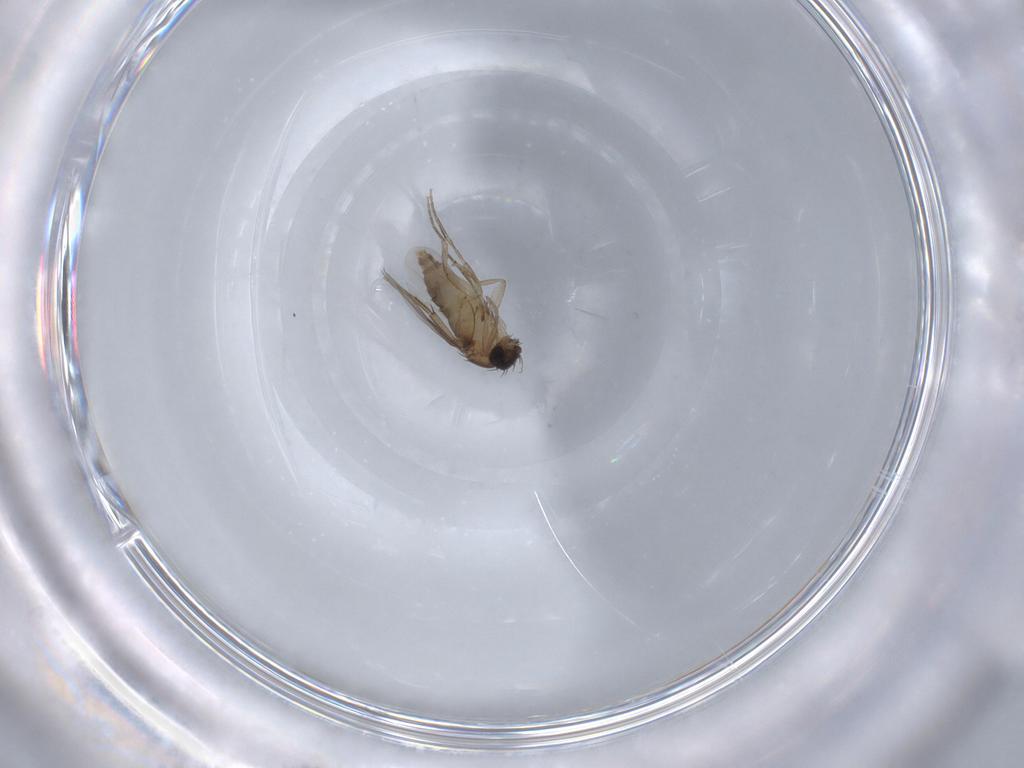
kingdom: Animalia
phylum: Arthropoda
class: Insecta
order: Diptera
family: Phoridae
